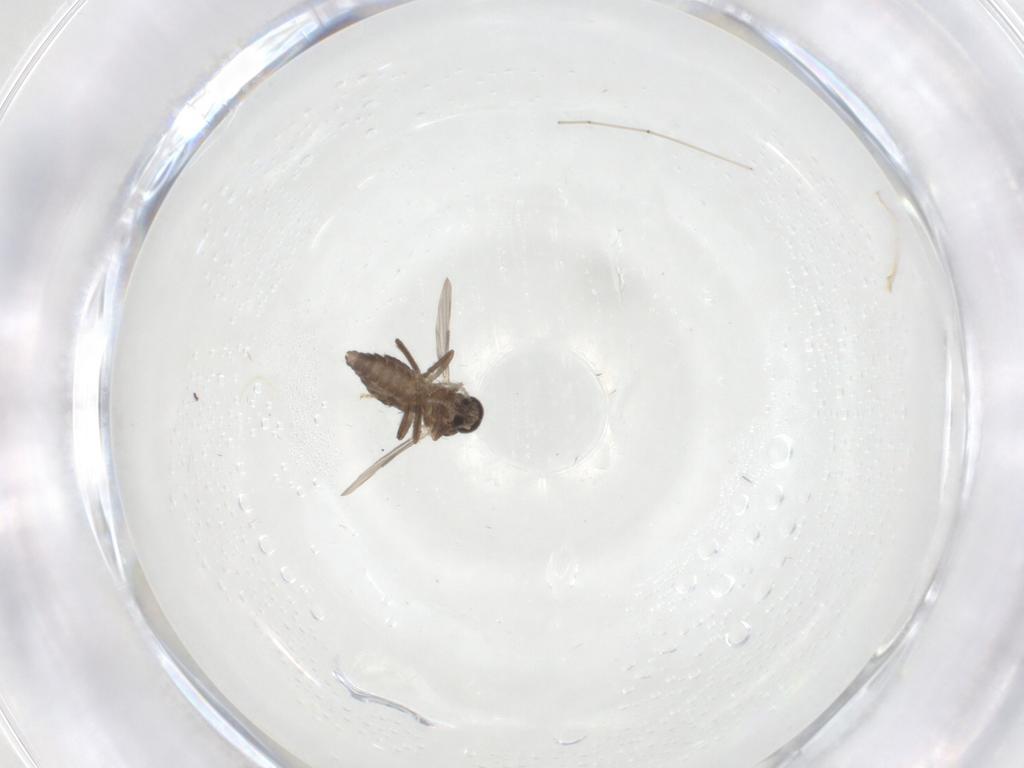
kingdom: Animalia
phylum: Arthropoda
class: Insecta
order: Diptera
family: Ceratopogonidae
